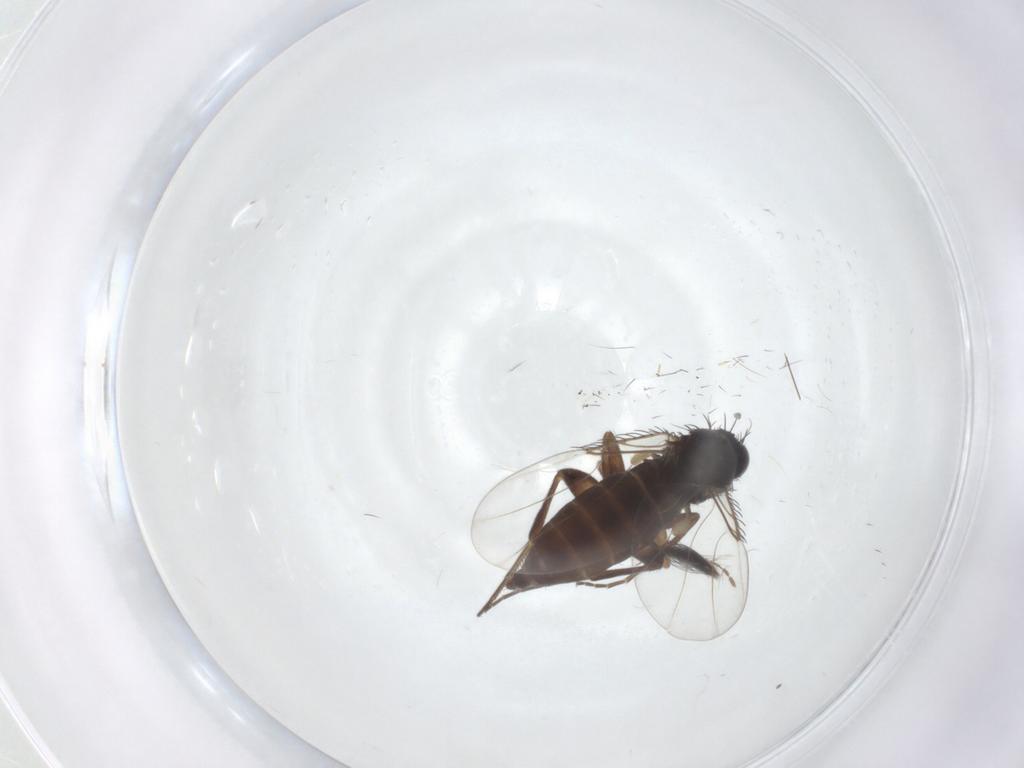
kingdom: Animalia
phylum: Arthropoda
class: Insecta
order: Diptera
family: Phoridae
